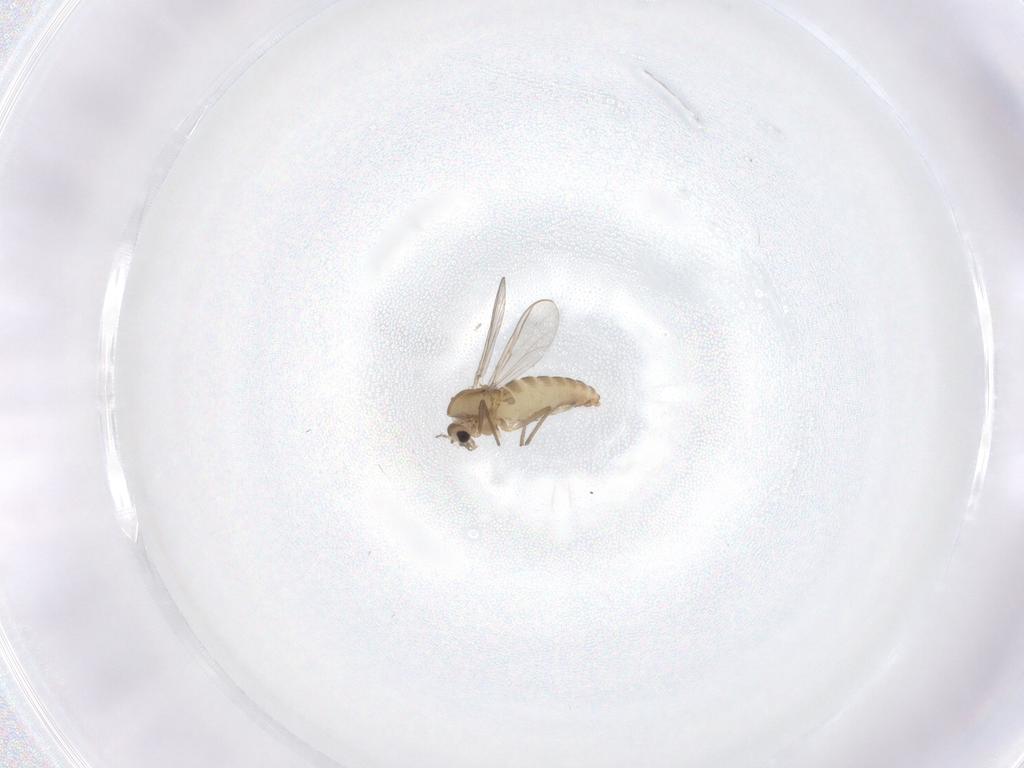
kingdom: Animalia
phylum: Arthropoda
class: Insecta
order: Diptera
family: Chironomidae
